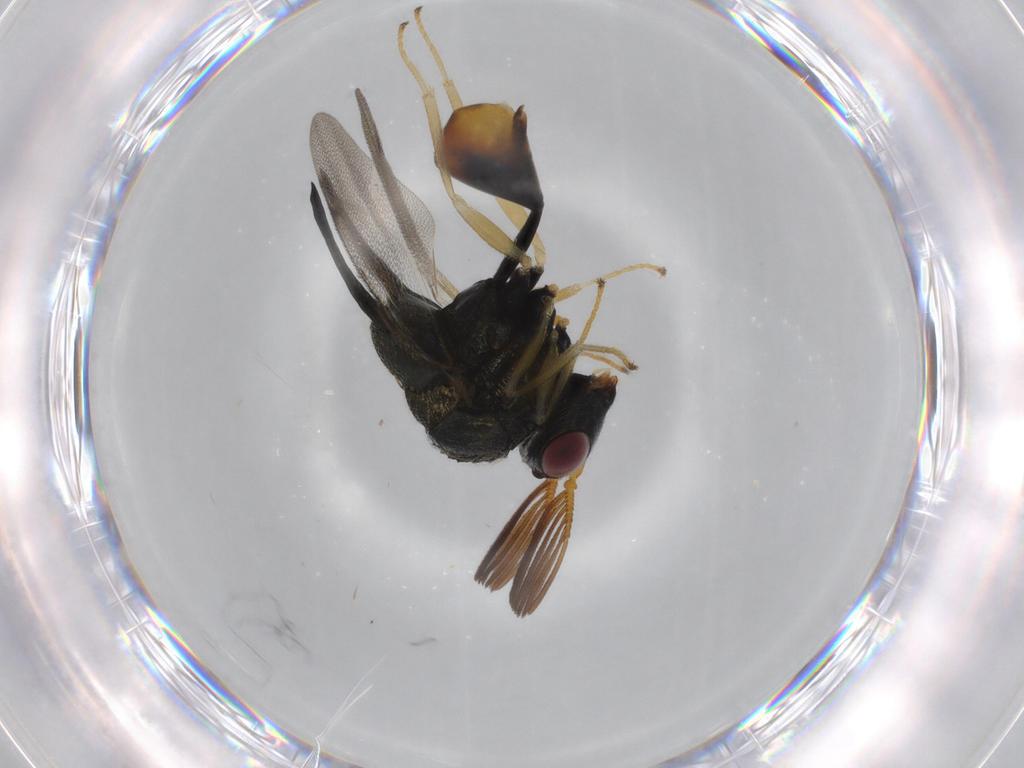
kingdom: Animalia
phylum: Arthropoda
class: Insecta
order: Hymenoptera
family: Eucharitidae
